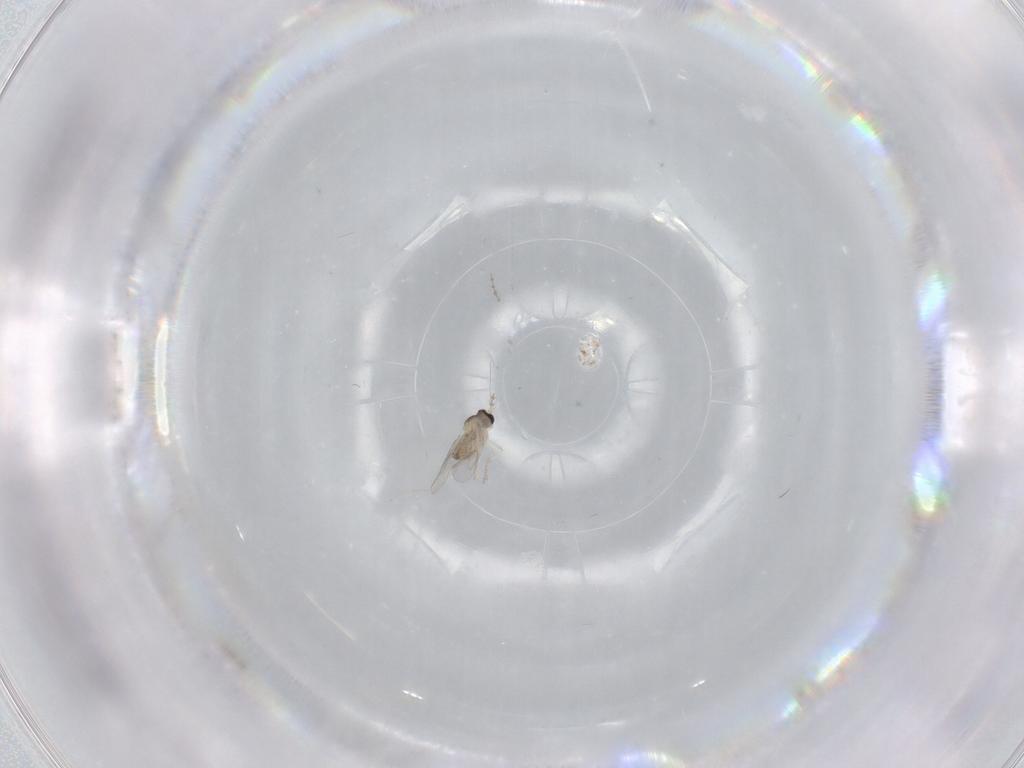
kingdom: Animalia
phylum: Arthropoda
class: Insecta
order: Diptera
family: Cecidomyiidae
